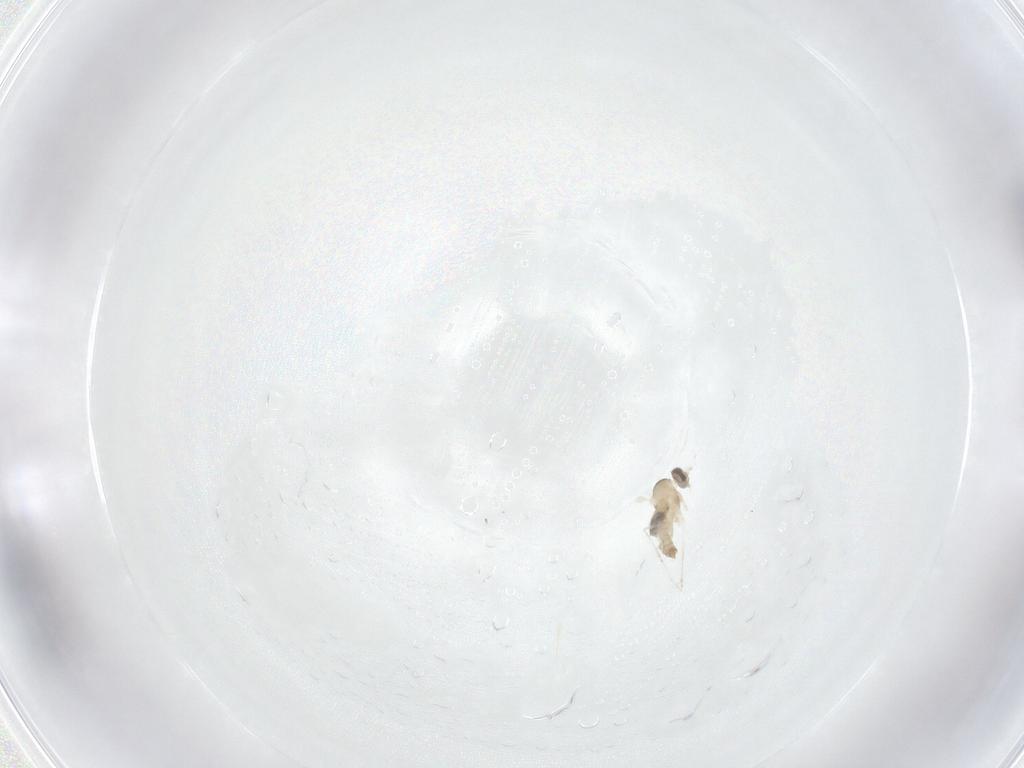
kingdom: Animalia
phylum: Arthropoda
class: Insecta
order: Diptera
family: Cecidomyiidae
